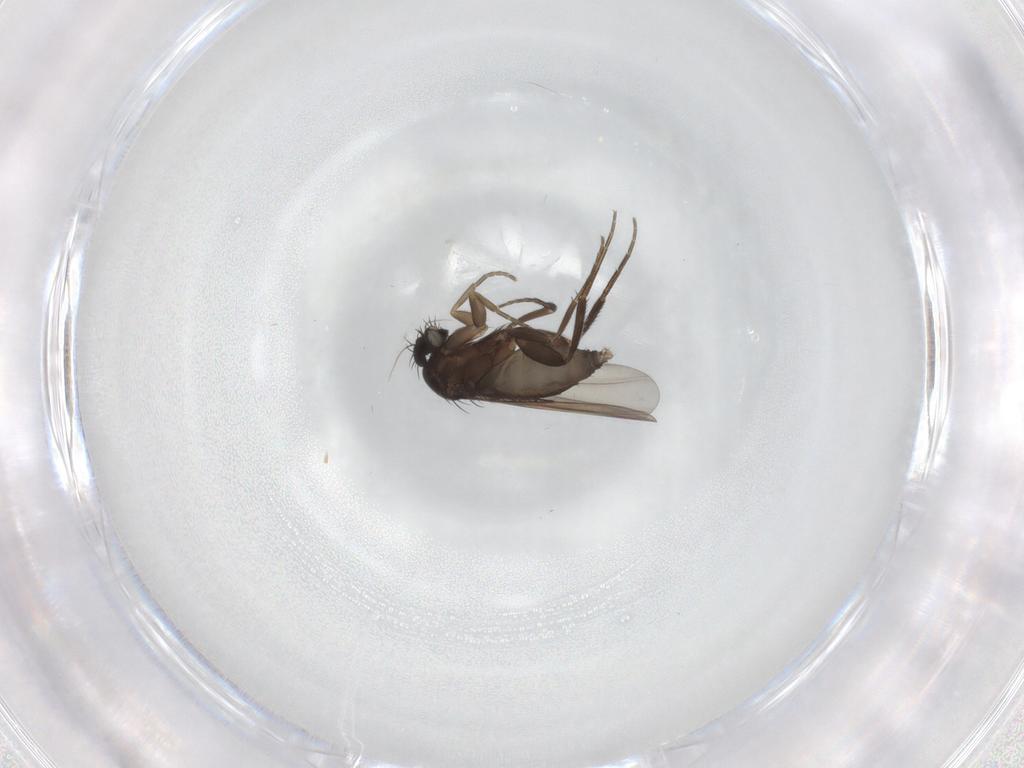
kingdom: Animalia
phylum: Arthropoda
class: Insecta
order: Diptera
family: Phoridae
